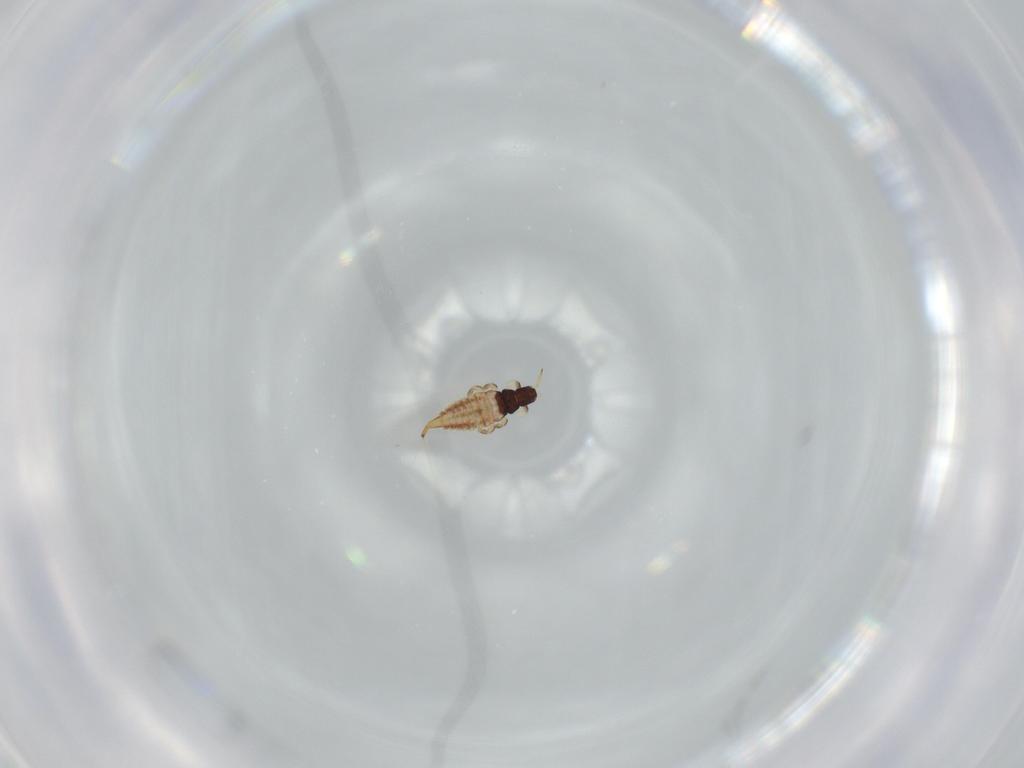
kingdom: Animalia
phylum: Arthropoda
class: Insecta
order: Thysanoptera
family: Phlaeothripidae
